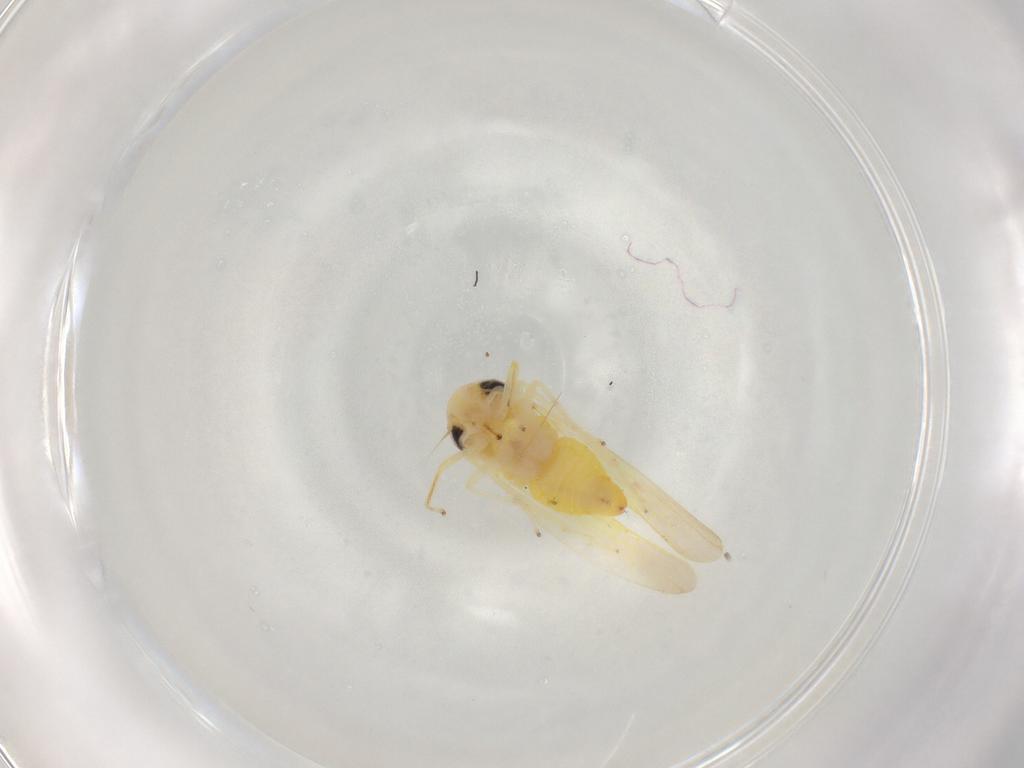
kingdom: Animalia
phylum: Arthropoda
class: Insecta
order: Hemiptera
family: Cicadellidae
